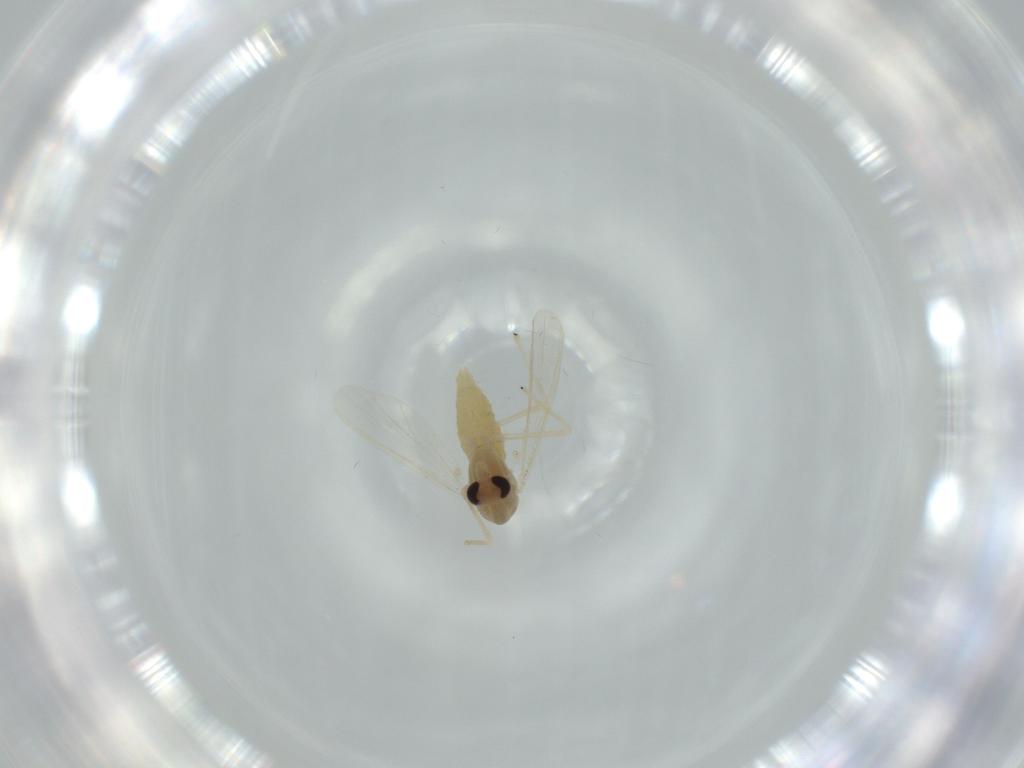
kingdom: Animalia
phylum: Arthropoda
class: Insecta
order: Diptera
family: Chironomidae
